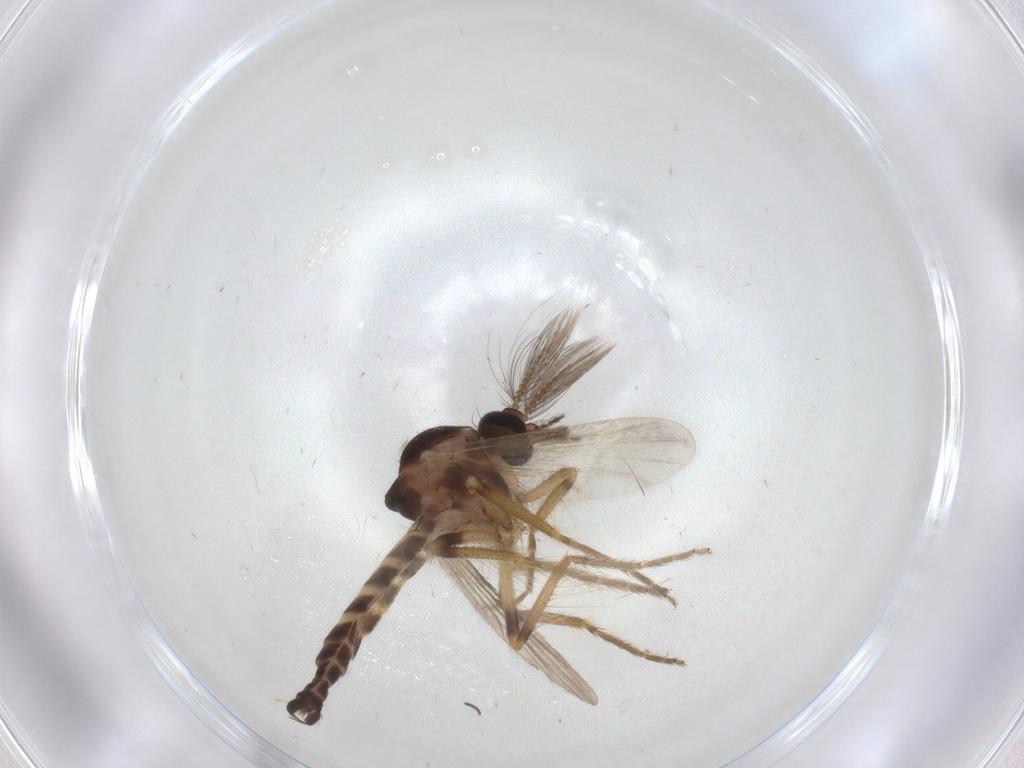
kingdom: Animalia
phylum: Arthropoda
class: Insecta
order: Diptera
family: Ceratopogonidae
